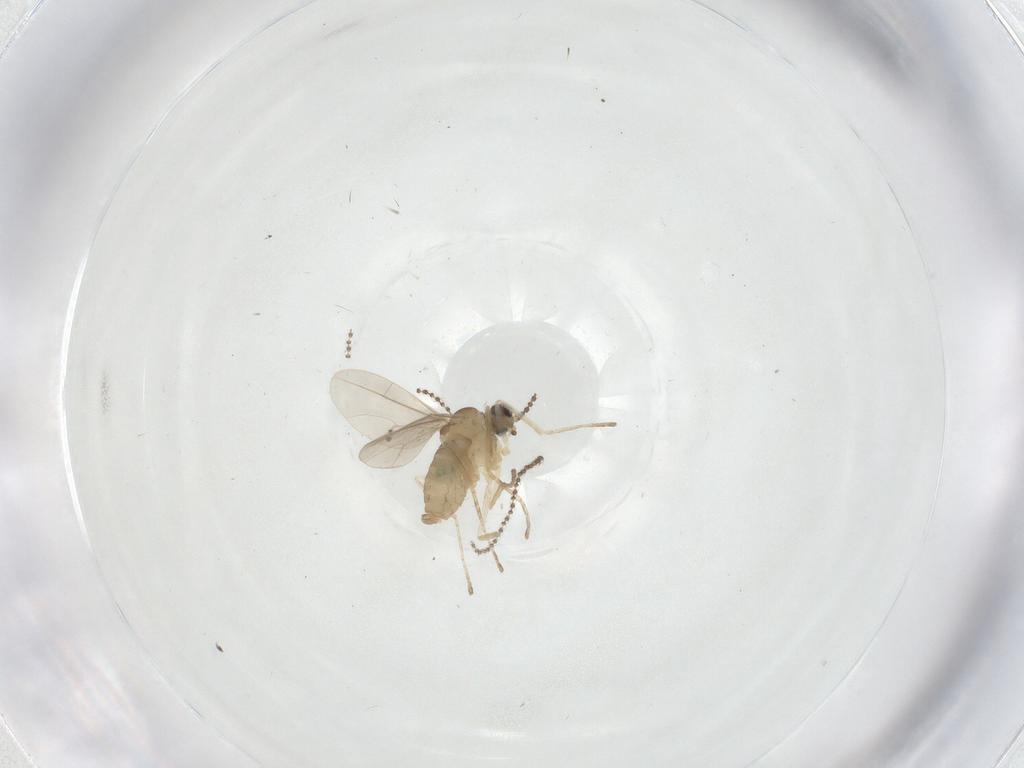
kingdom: Animalia
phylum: Arthropoda
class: Insecta
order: Diptera
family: Cecidomyiidae
